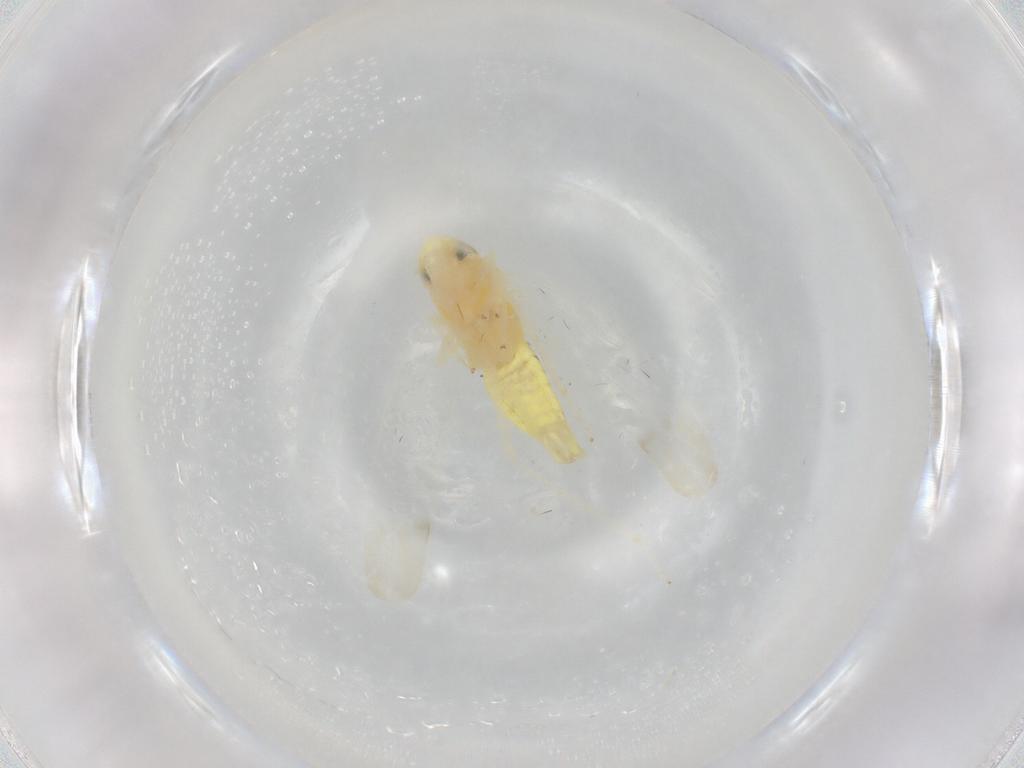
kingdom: Animalia
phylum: Arthropoda
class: Insecta
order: Hemiptera
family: Cicadellidae
